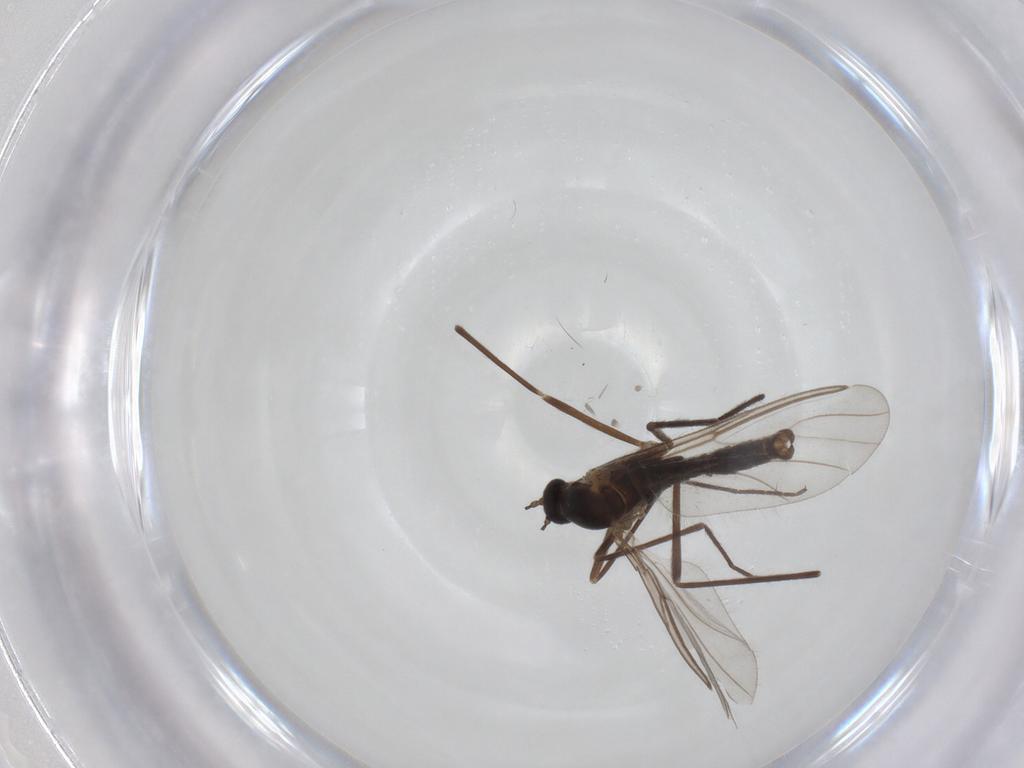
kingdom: Animalia
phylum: Arthropoda
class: Insecta
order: Diptera
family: Cecidomyiidae
